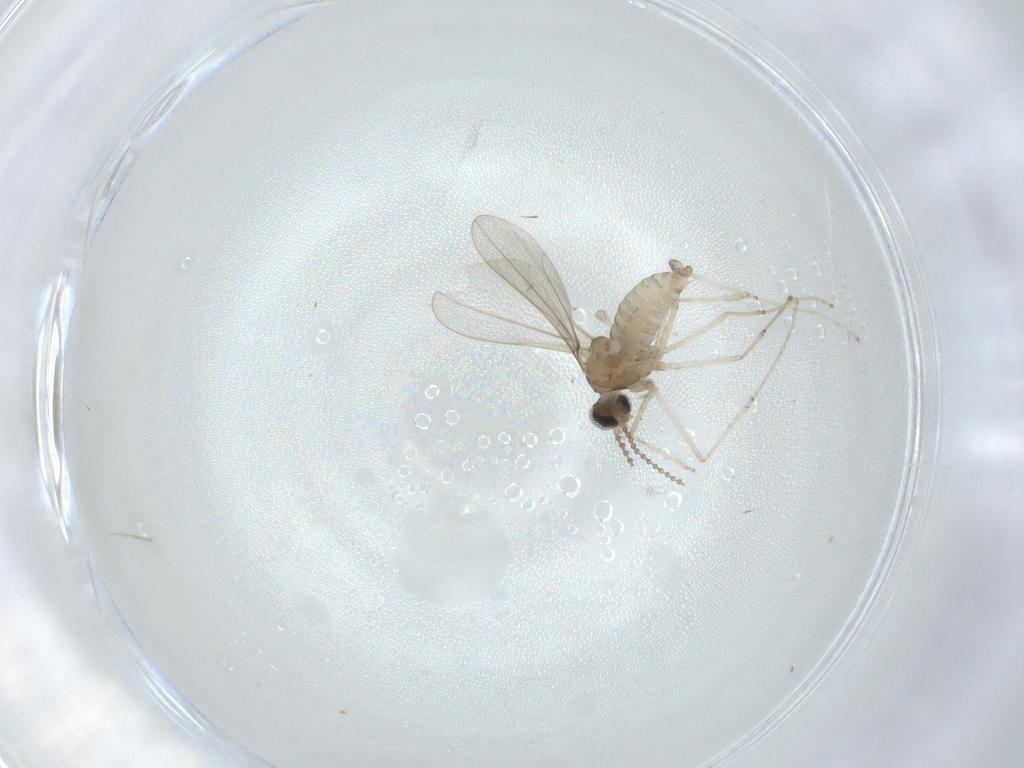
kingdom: Animalia
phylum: Arthropoda
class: Insecta
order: Diptera
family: Cecidomyiidae
